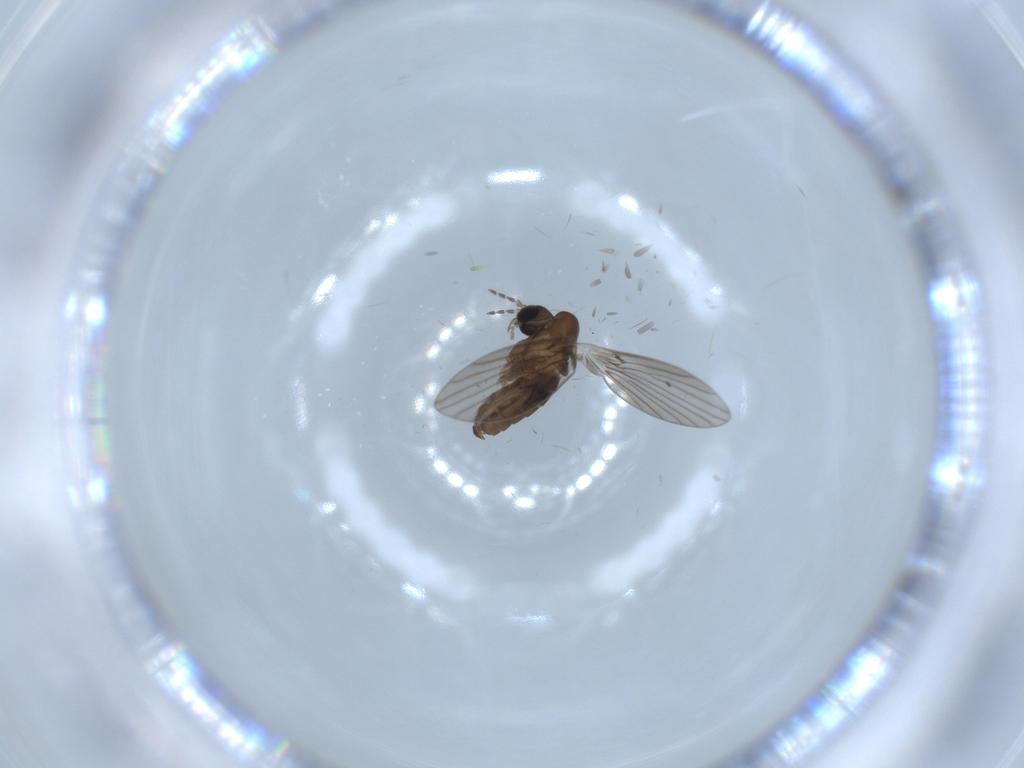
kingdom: Animalia
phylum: Arthropoda
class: Insecta
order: Diptera
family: Psychodidae
